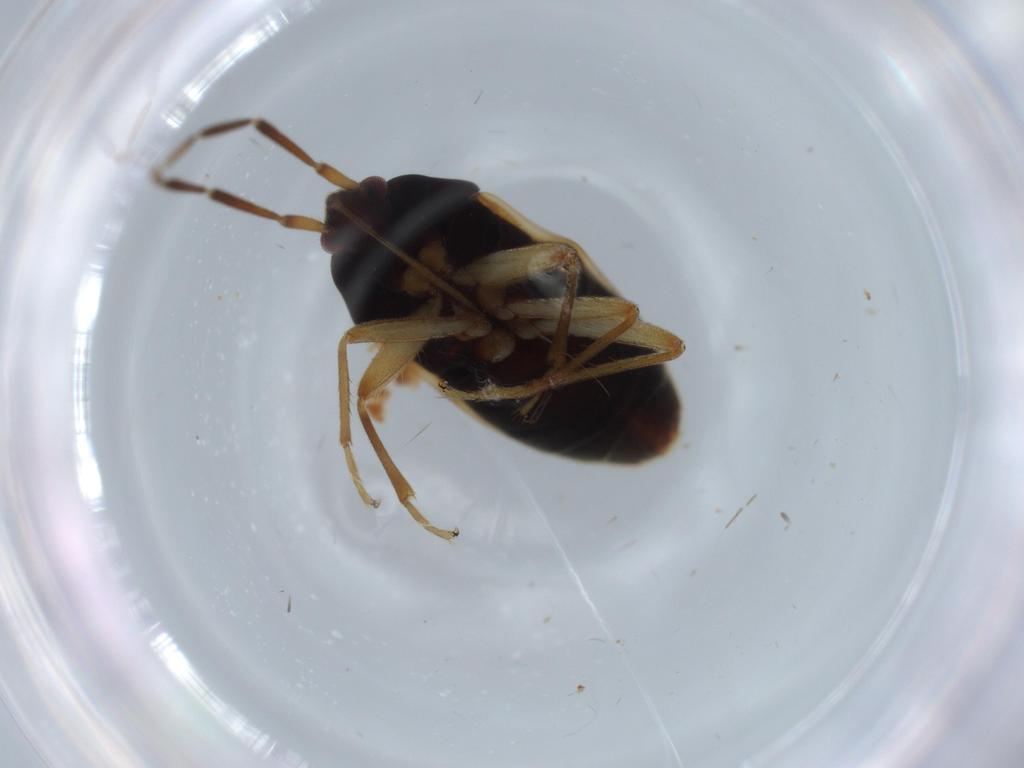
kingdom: Animalia
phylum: Arthropoda
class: Insecta
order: Hemiptera
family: Rhyparochromidae
